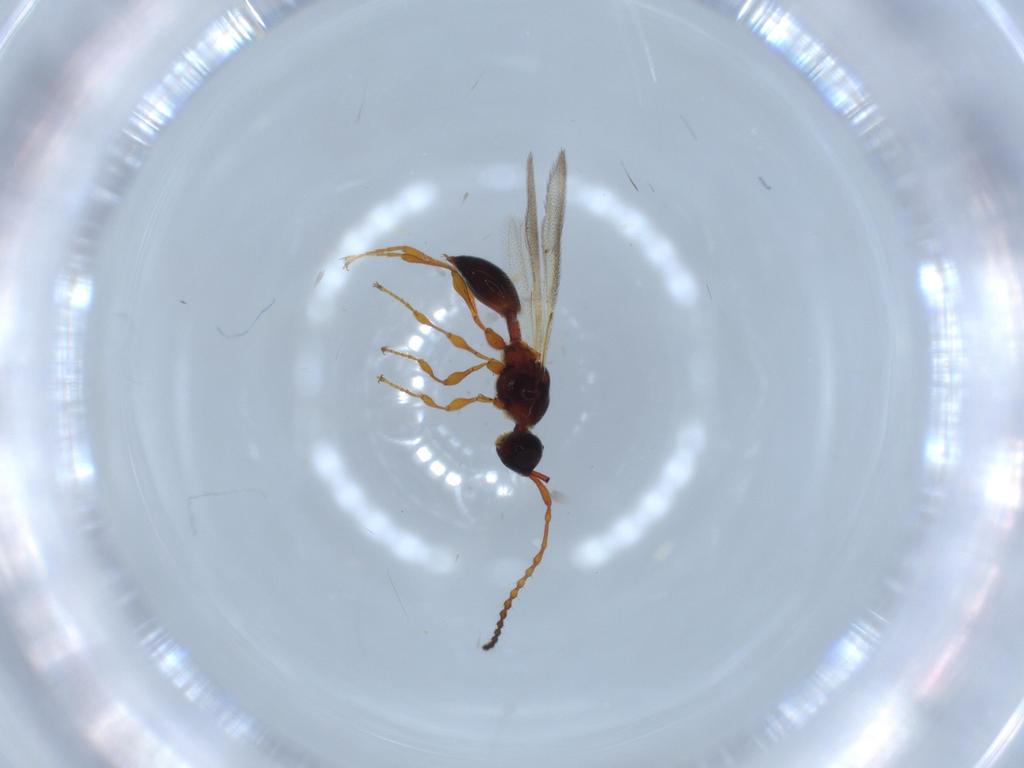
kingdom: Animalia
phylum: Arthropoda
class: Insecta
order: Hymenoptera
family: Diapriidae
